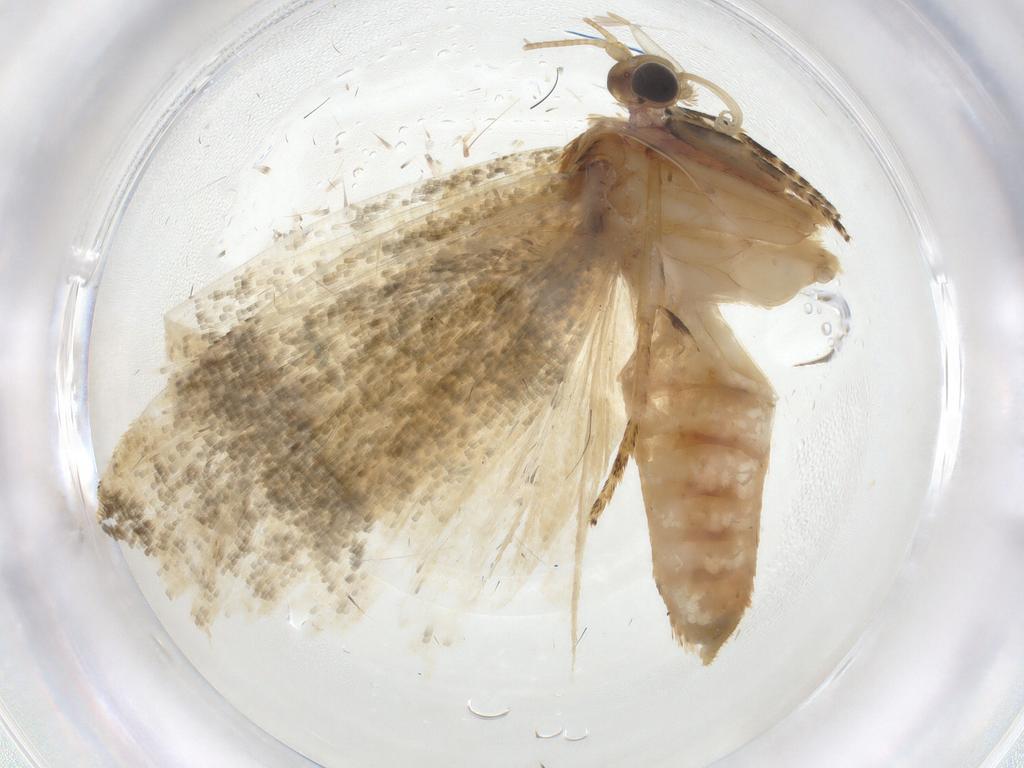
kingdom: Animalia
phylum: Arthropoda
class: Insecta
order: Lepidoptera
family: Tortricidae
